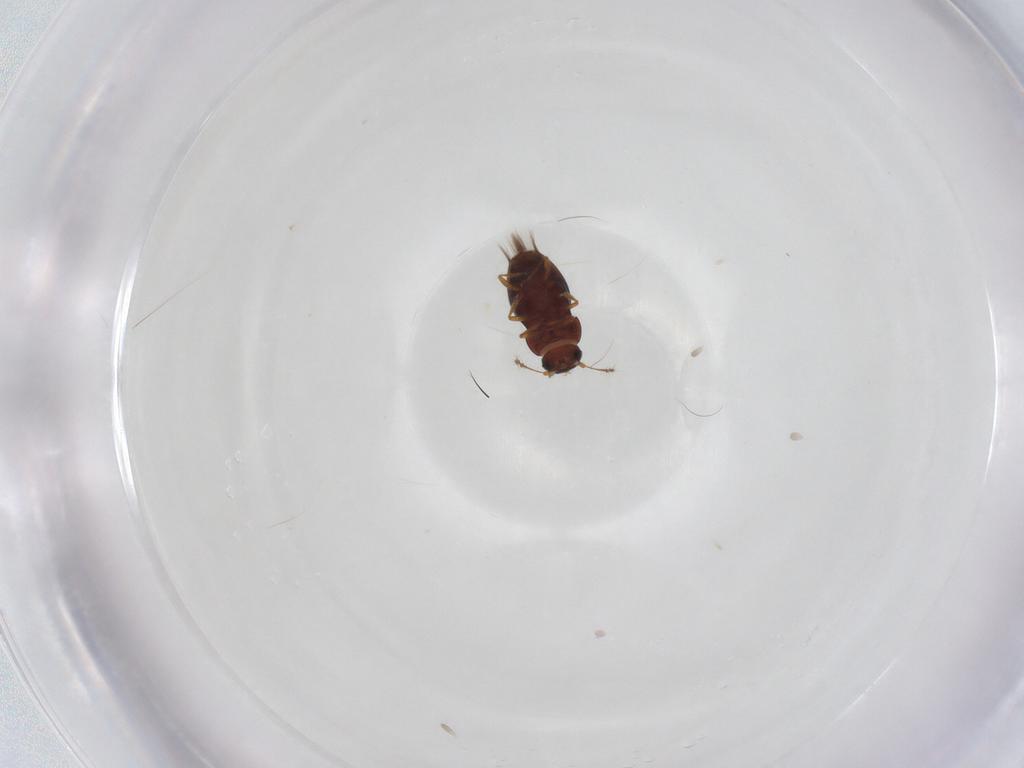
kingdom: Animalia
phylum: Arthropoda
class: Insecta
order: Coleoptera
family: Ptiliidae
